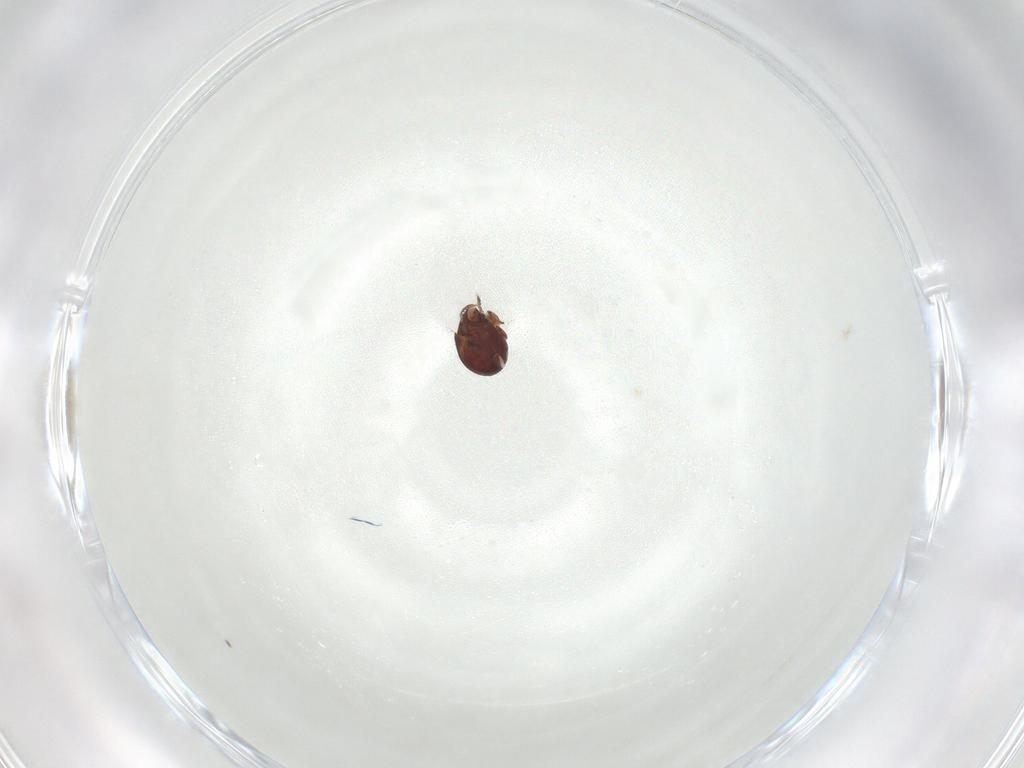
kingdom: Animalia
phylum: Arthropoda
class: Arachnida
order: Sarcoptiformes
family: Humerobatidae
